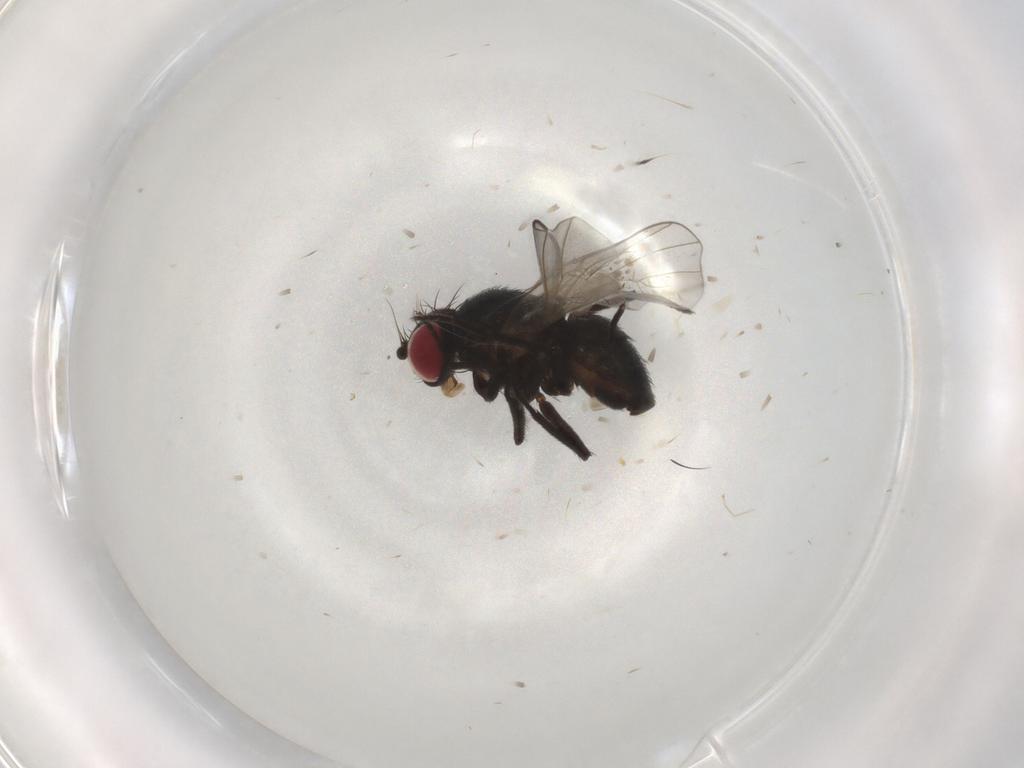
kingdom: Animalia
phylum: Arthropoda
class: Insecta
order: Diptera
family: Agromyzidae
